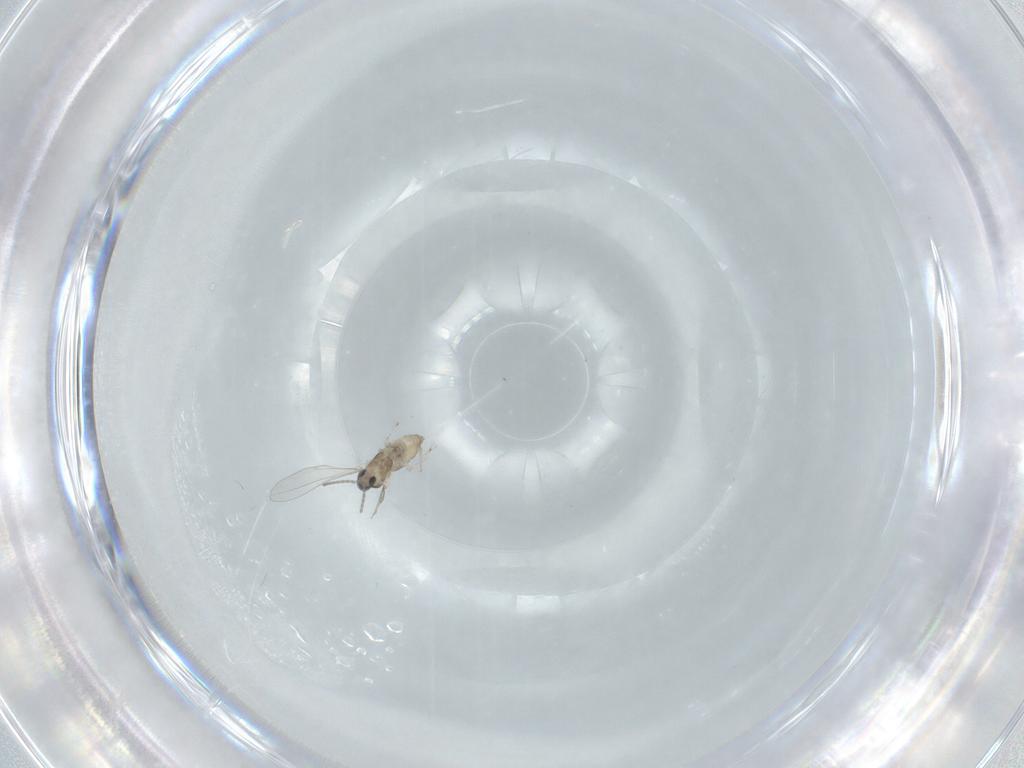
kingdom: Animalia
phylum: Arthropoda
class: Insecta
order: Diptera
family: Cecidomyiidae
